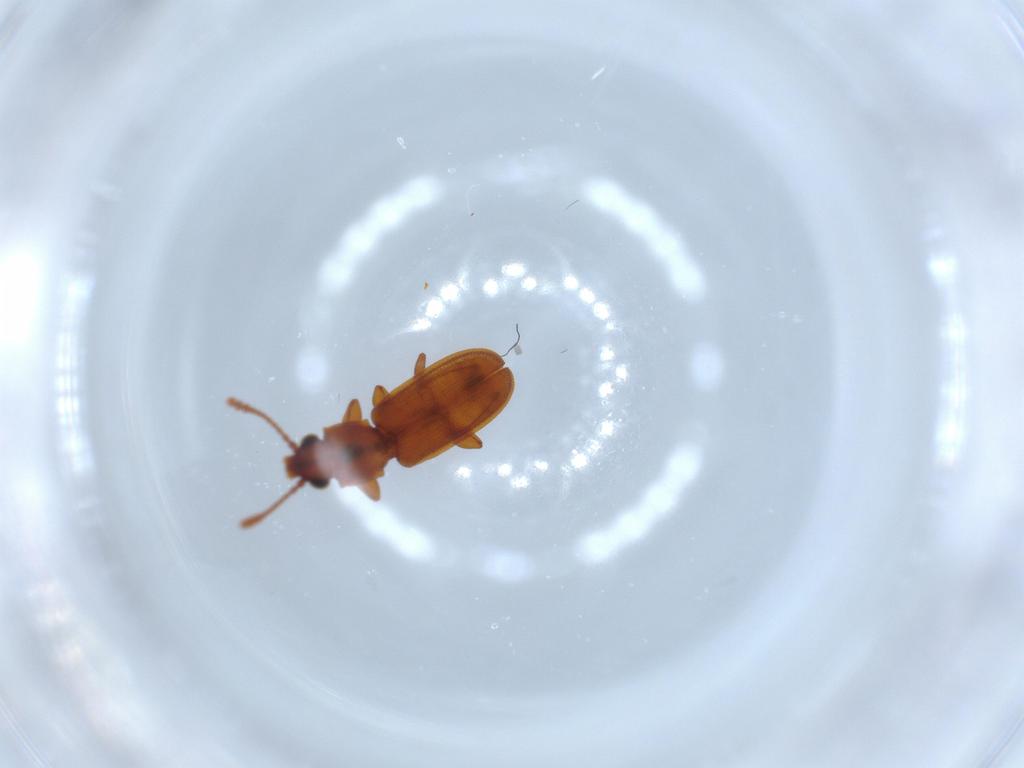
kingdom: Animalia
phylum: Arthropoda
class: Insecta
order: Coleoptera
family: Silvanidae
